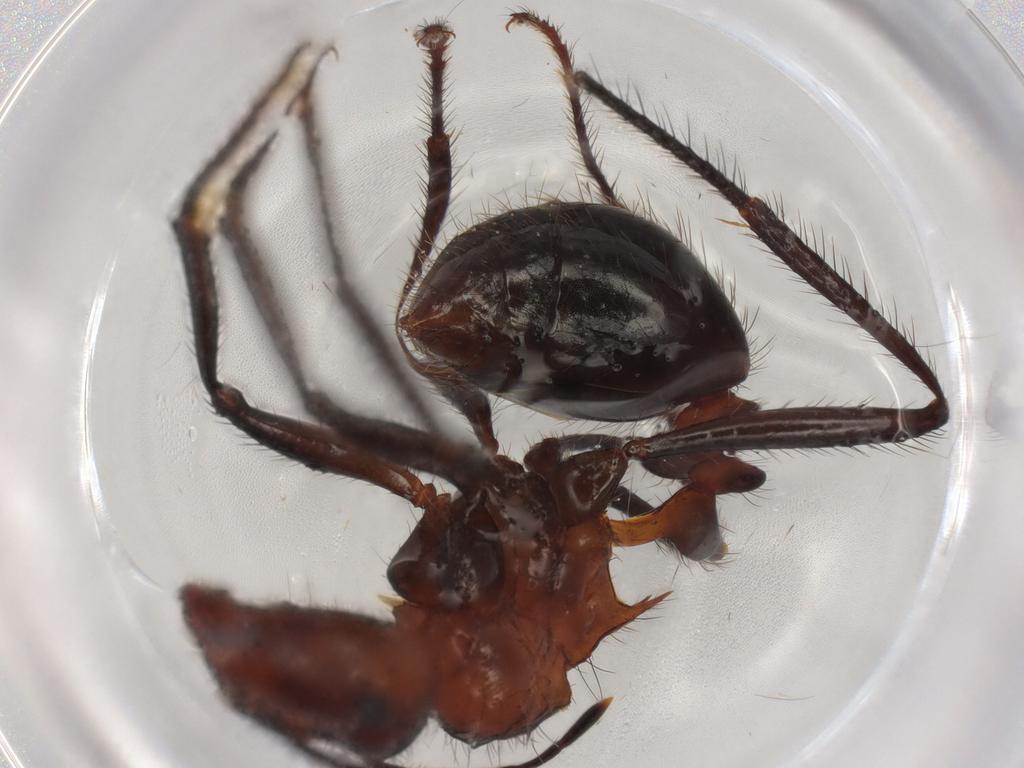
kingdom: Animalia
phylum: Arthropoda
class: Insecta
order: Hymenoptera
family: Formicidae
